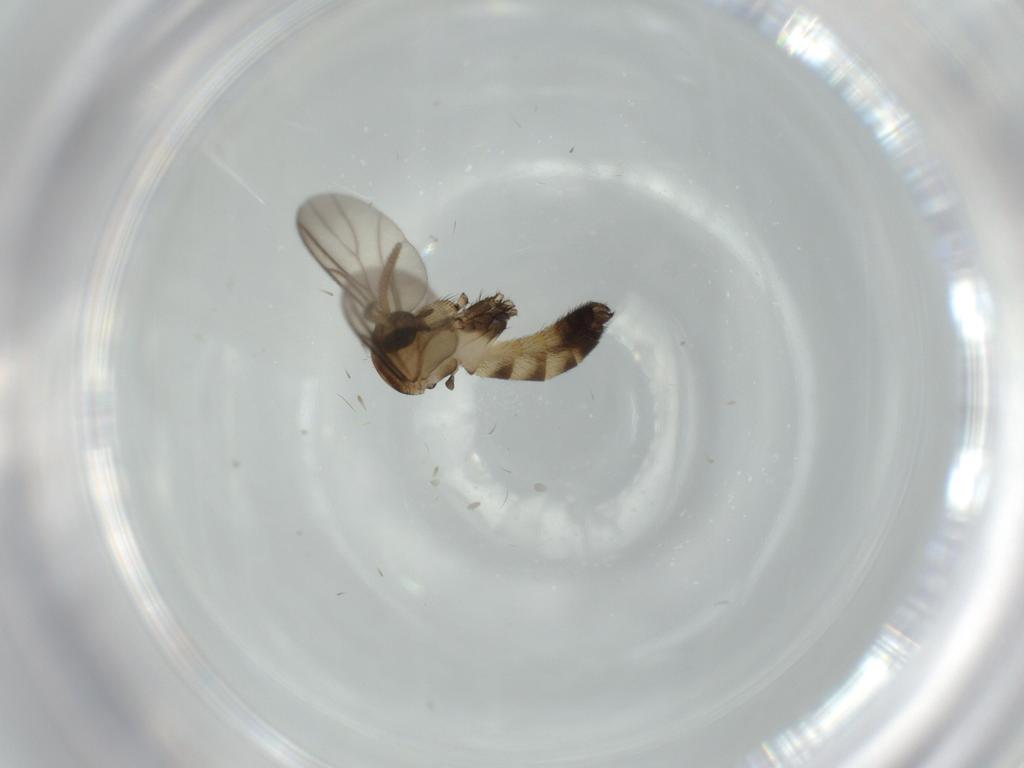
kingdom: Animalia
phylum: Arthropoda
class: Insecta
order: Diptera
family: Mycetophilidae
